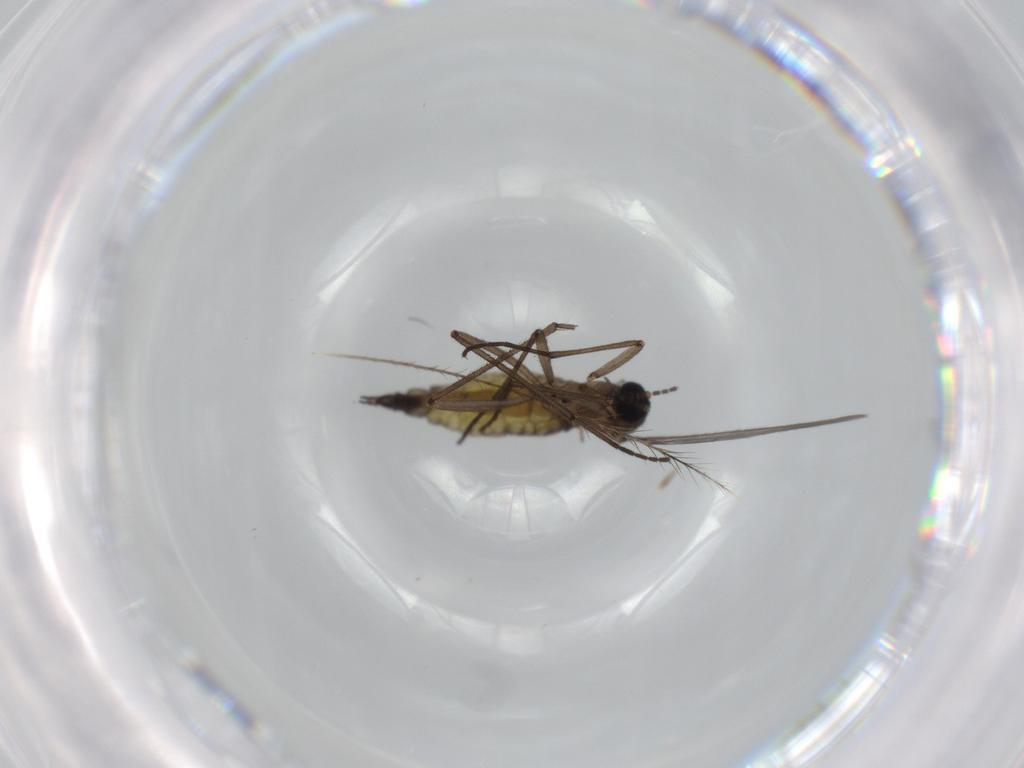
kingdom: Animalia
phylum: Arthropoda
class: Insecta
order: Diptera
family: Sciaridae
